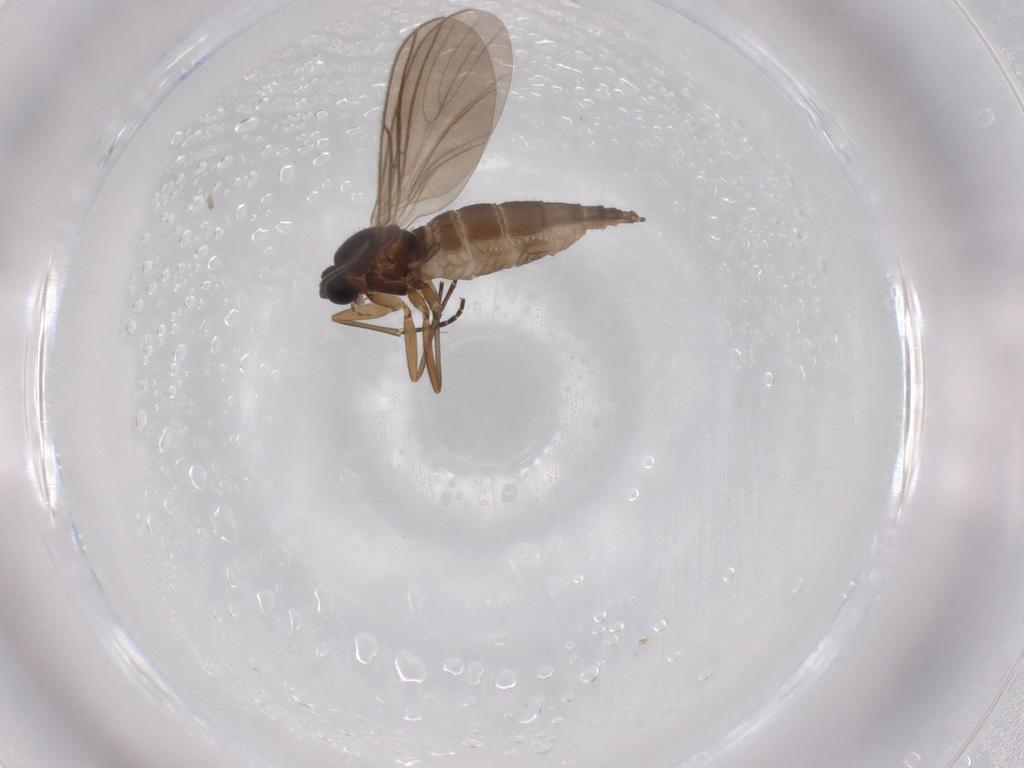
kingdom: Animalia
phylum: Arthropoda
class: Insecta
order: Diptera
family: Sciaridae
